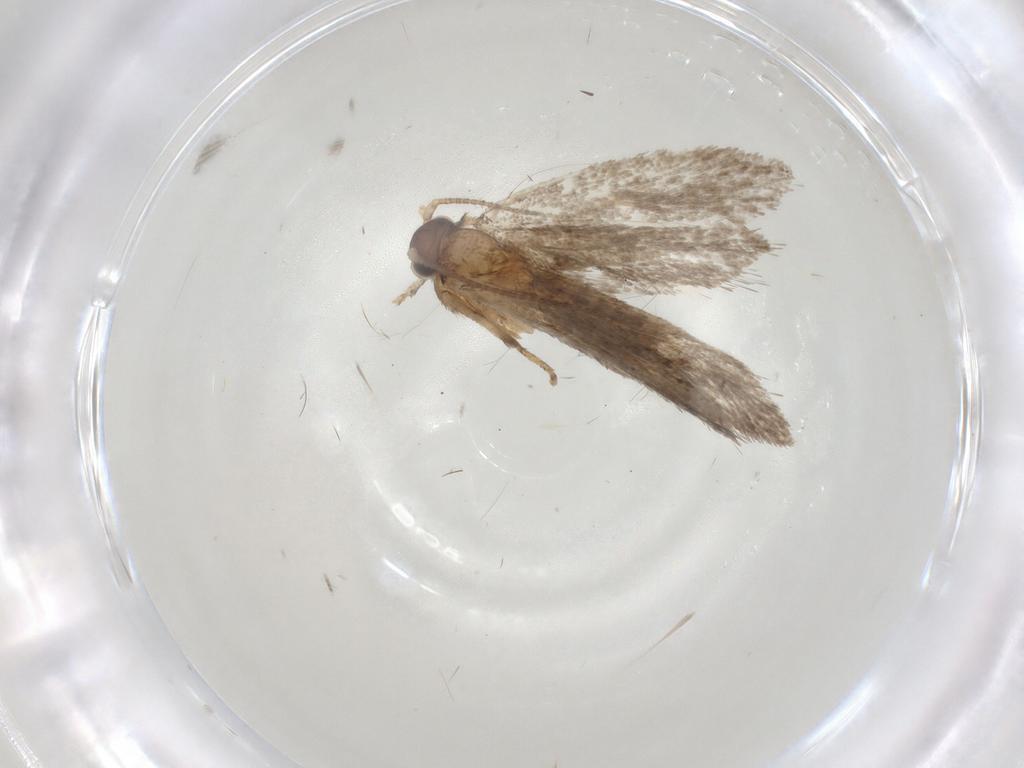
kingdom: Animalia
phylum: Arthropoda
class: Insecta
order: Lepidoptera
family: Dryadaulidae
